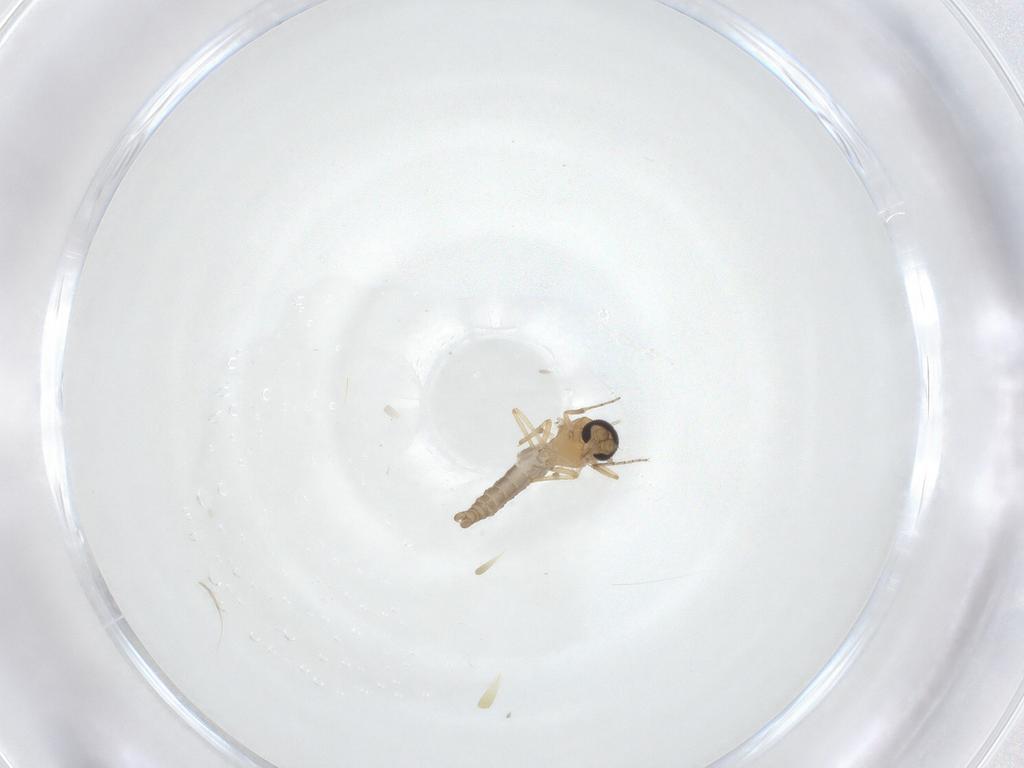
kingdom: Animalia
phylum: Arthropoda
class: Insecta
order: Diptera
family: Ceratopogonidae
